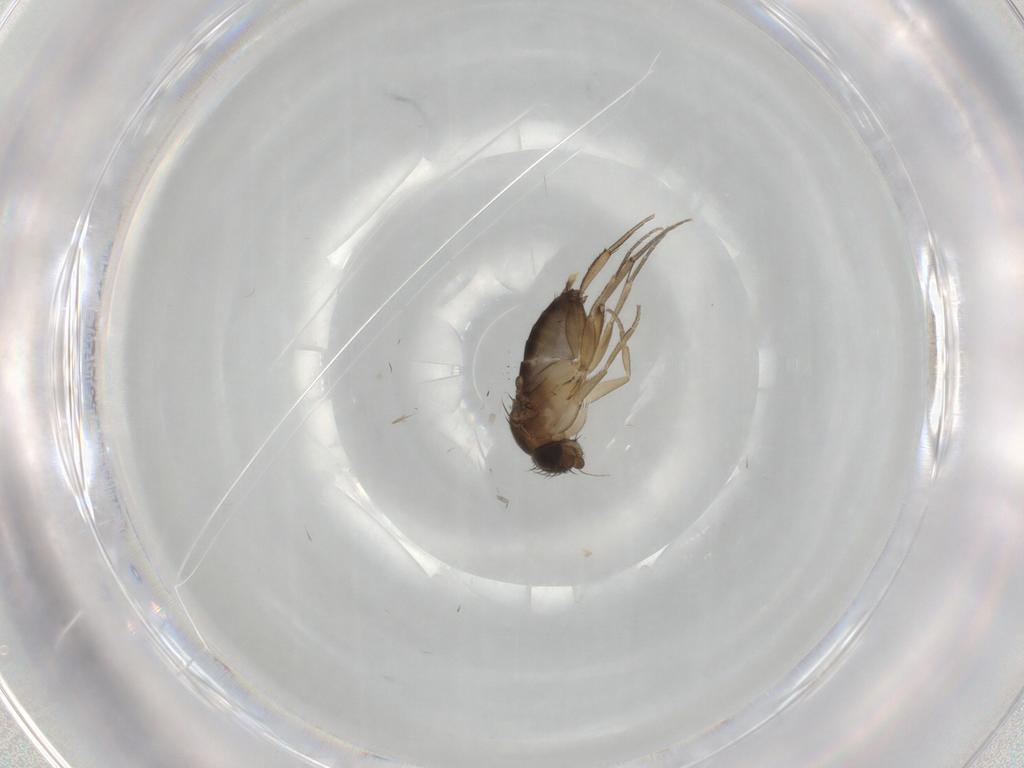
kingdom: Animalia
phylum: Arthropoda
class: Insecta
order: Diptera
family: Phoridae
